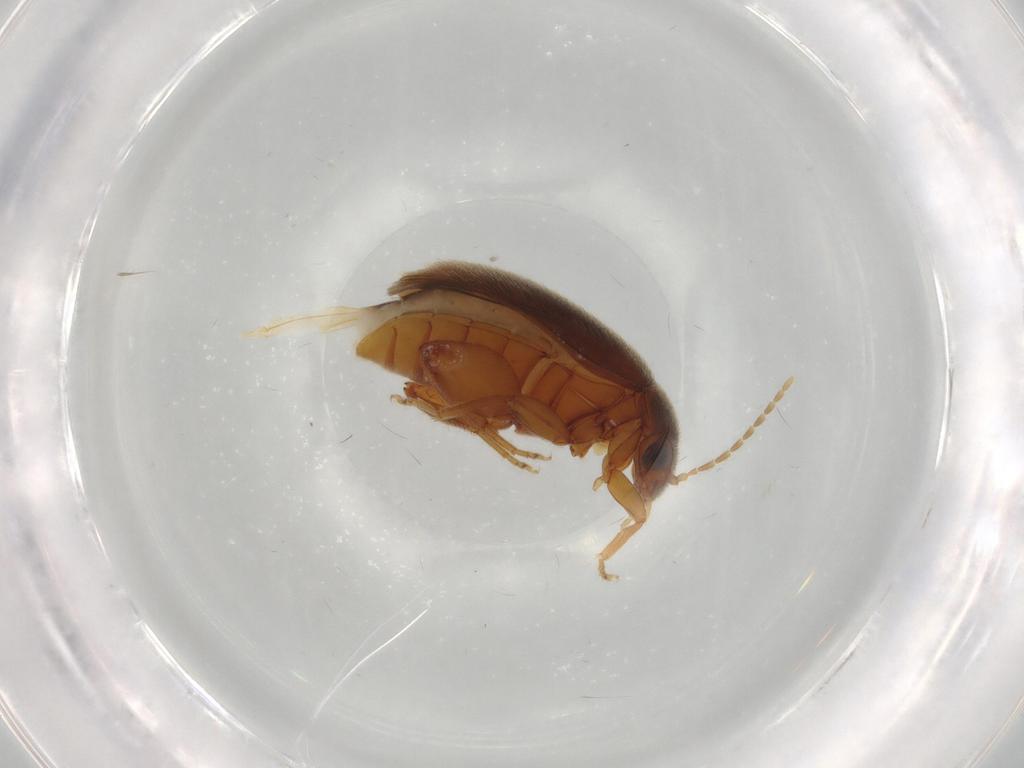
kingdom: Animalia
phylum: Arthropoda
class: Insecta
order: Coleoptera
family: Scirtidae
